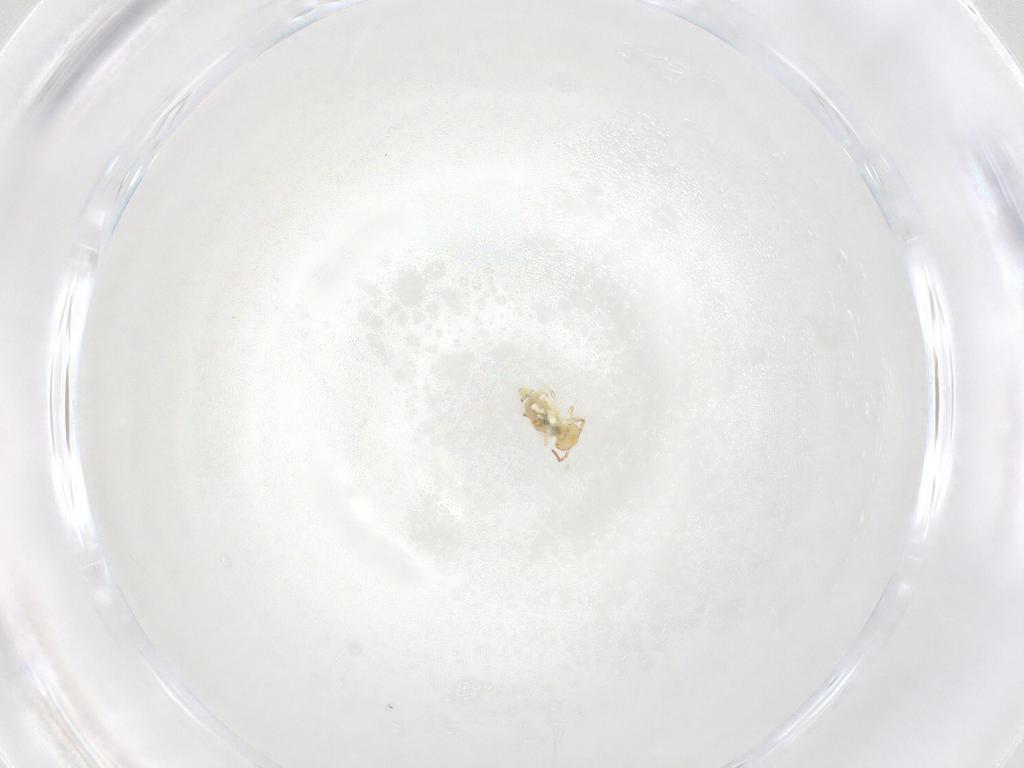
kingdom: Animalia
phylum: Arthropoda
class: Collembola
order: Symphypleona
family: Bourletiellidae
